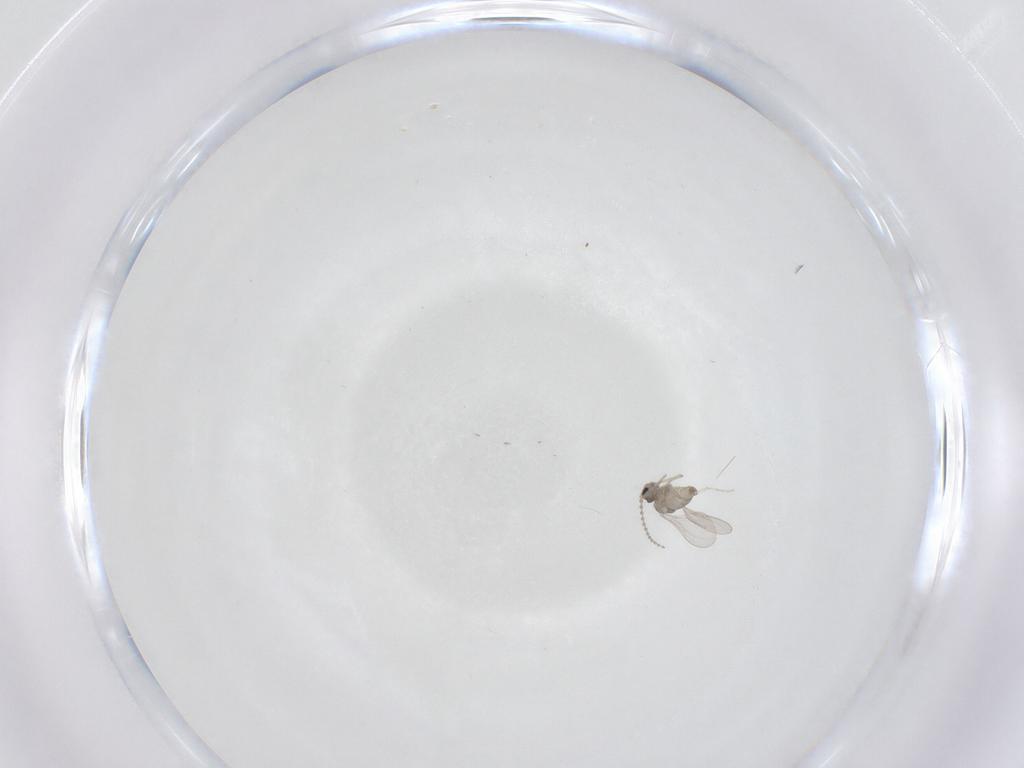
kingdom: Animalia
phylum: Arthropoda
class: Insecta
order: Diptera
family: Cecidomyiidae
